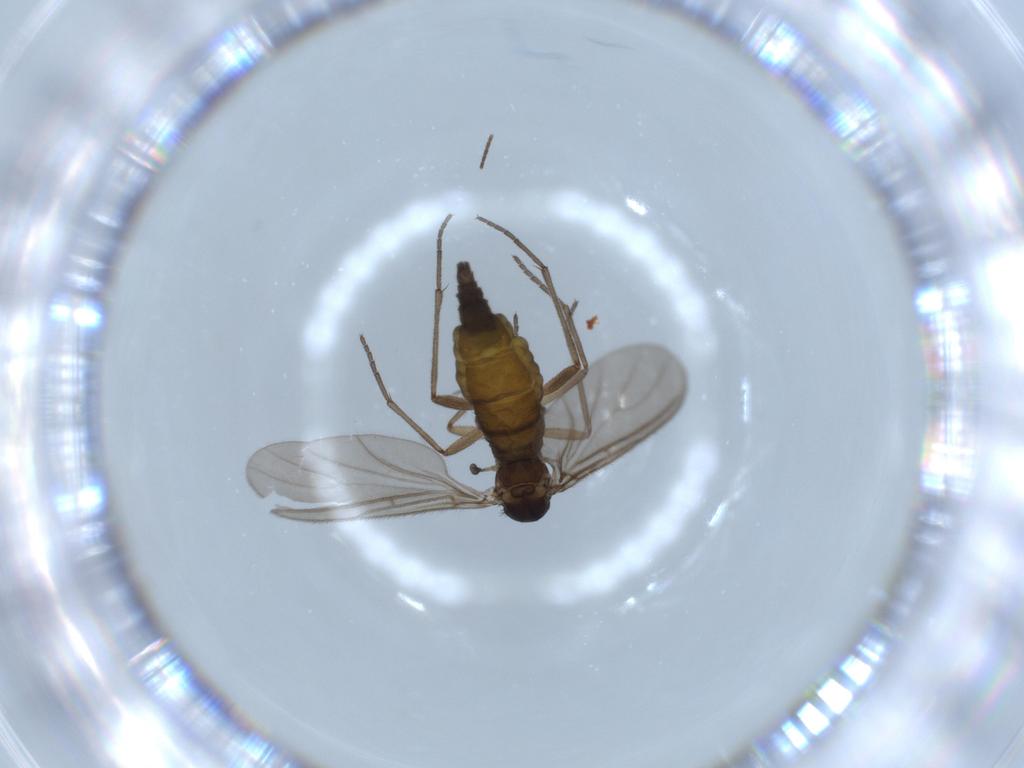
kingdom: Animalia
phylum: Arthropoda
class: Insecta
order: Diptera
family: Sciaridae
